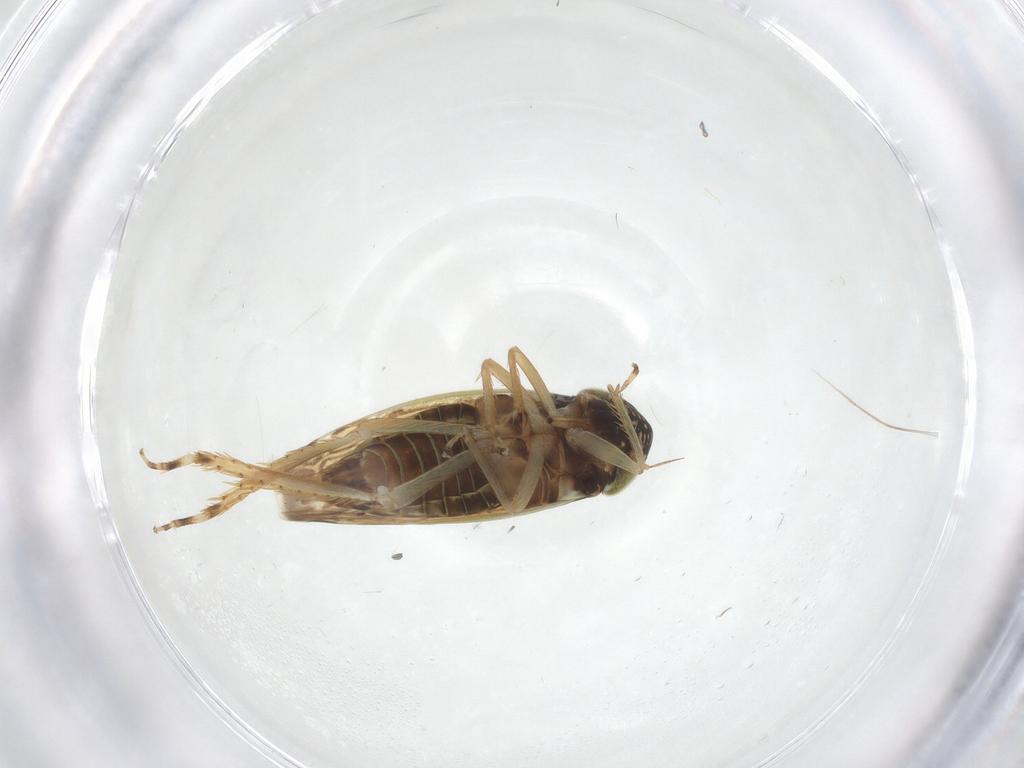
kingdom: Animalia
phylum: Arthropoda
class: Insecta
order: Hemiptera
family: Cicadellidae
